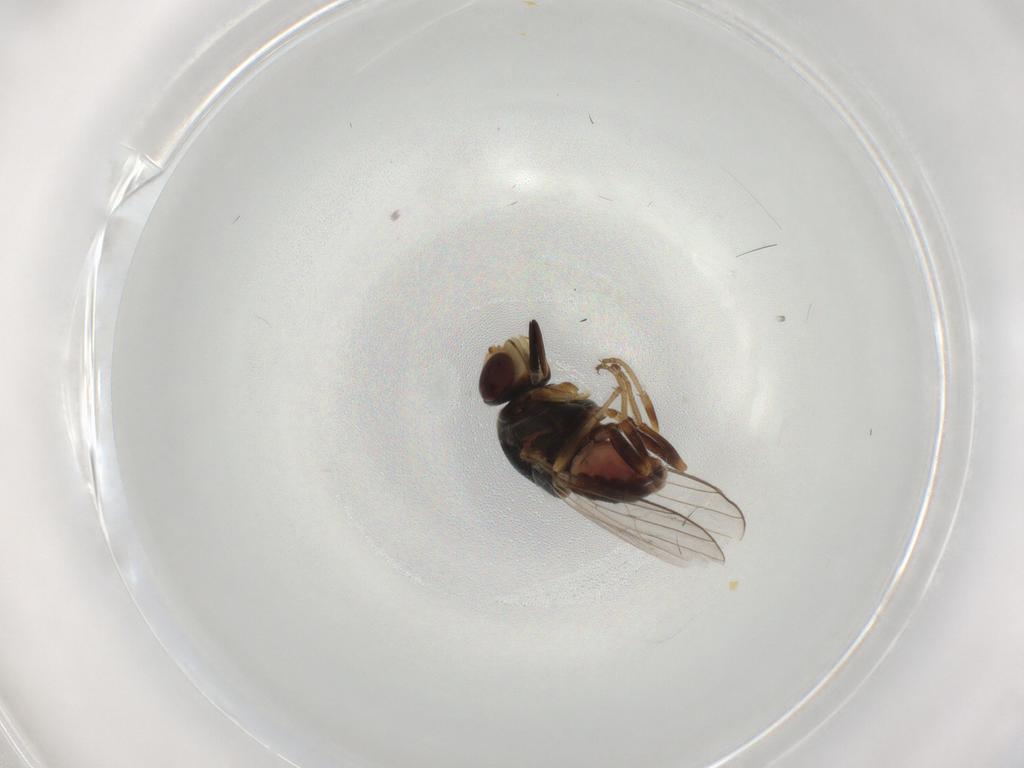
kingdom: Animalia
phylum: Arthropoda
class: Insecta
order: Diptera
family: Chloropidae
